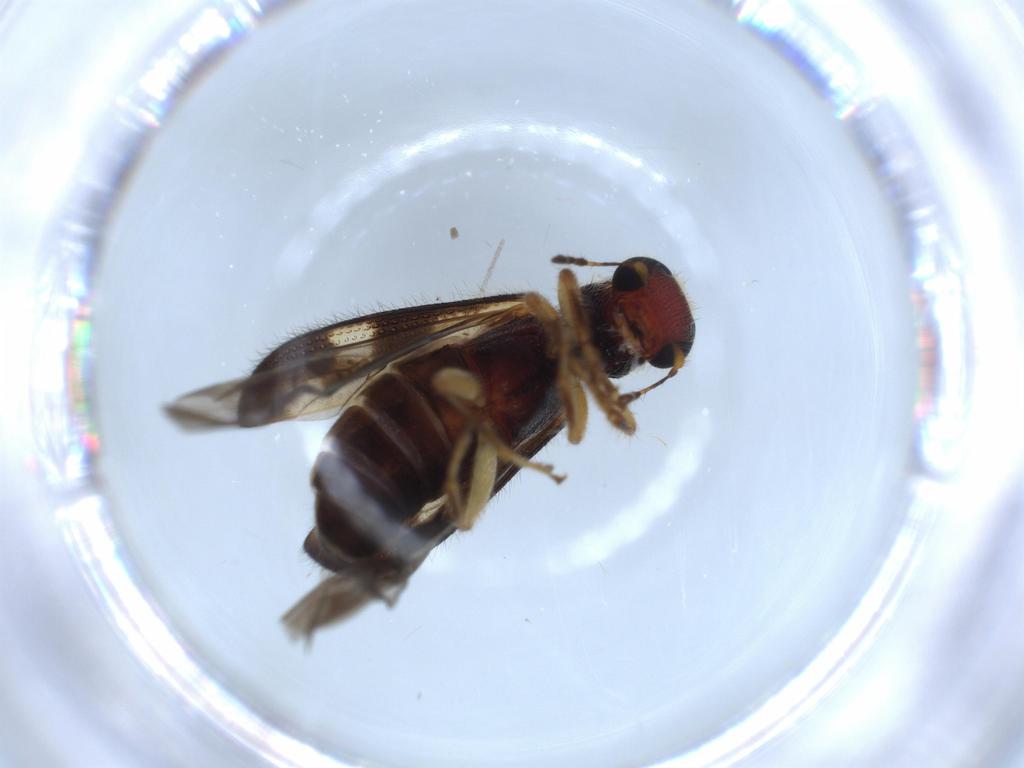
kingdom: Animalia
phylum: Arthropoda
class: Insecta
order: Coleoptera
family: Cleridae
